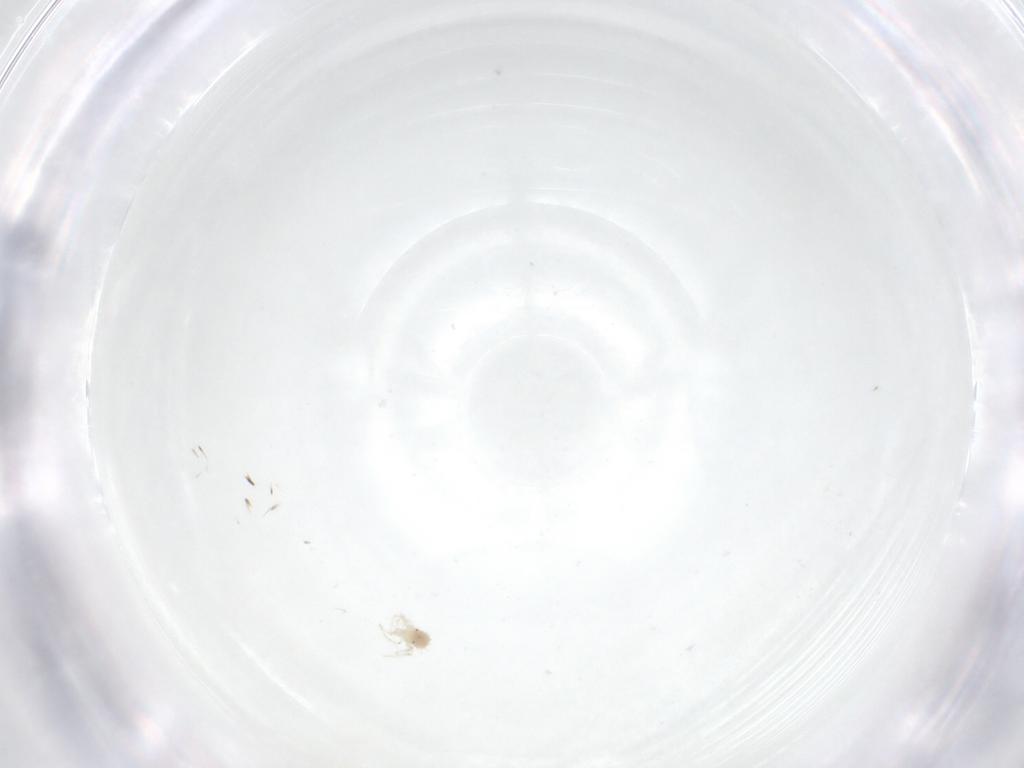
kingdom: Animalia
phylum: Arthropoda
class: Arachnida
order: Trombidiformes
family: Anystidae
